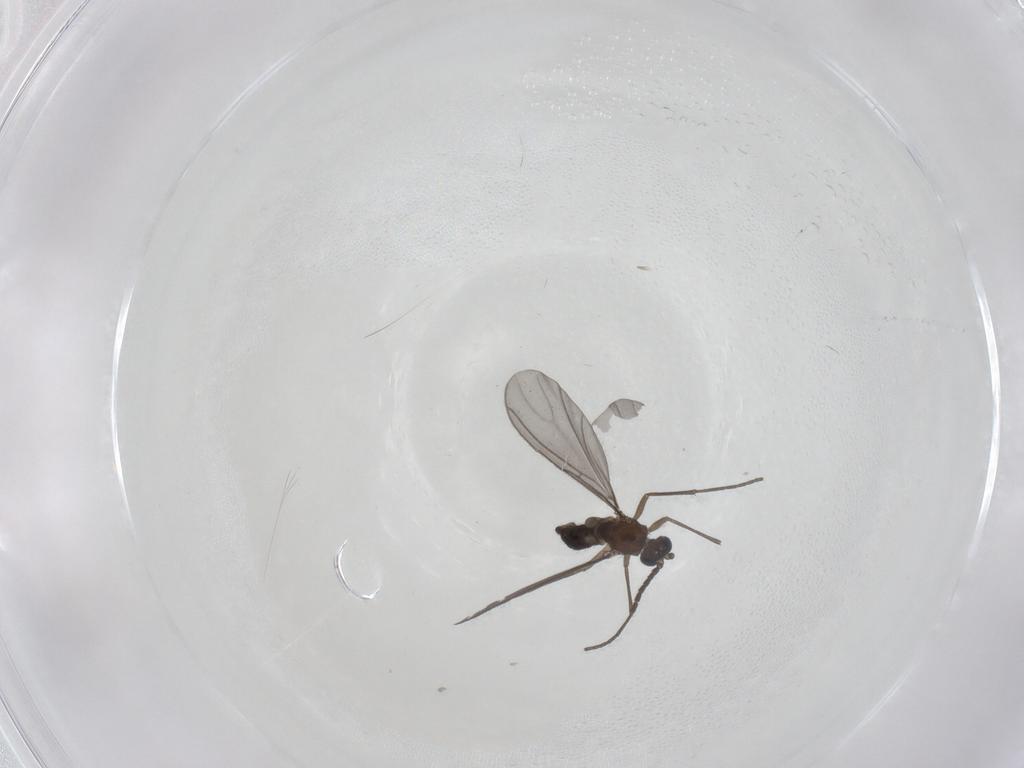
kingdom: Animalia
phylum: Arthropoda
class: Insecta
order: Diptera
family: Sciaridae
